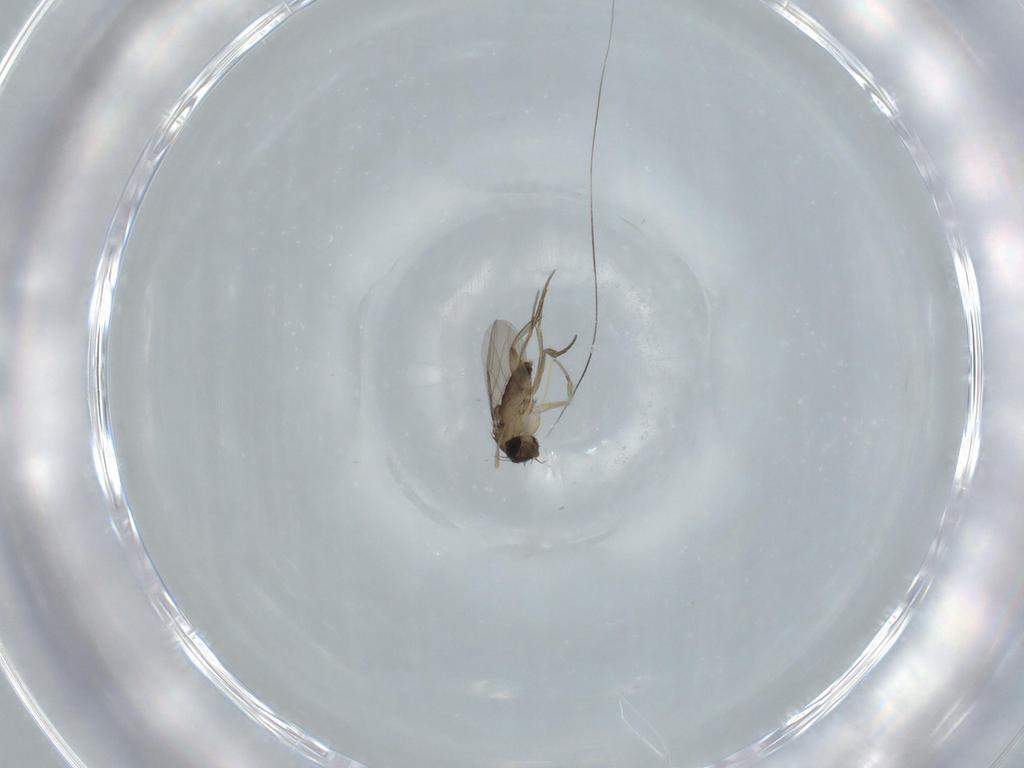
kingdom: Animalia
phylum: Arthropoda
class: Insecta
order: Diptera
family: Phoridae
